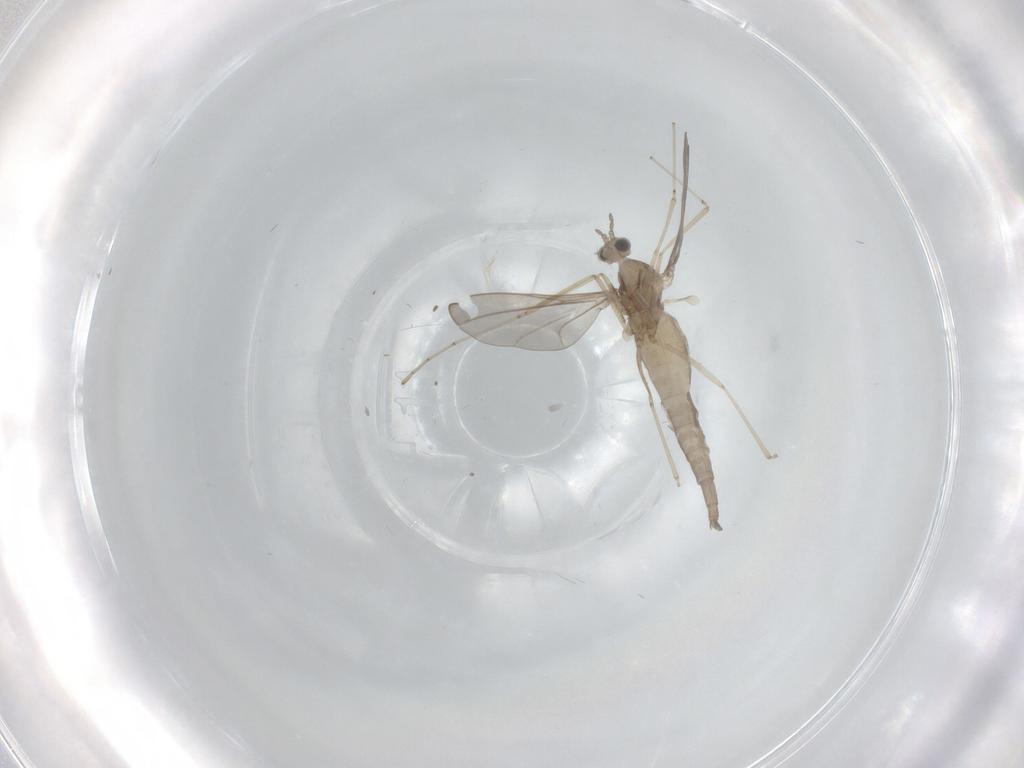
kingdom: Animalia
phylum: Arthropoda
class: Insecta
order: Diptera
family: Cecidomyiidae
